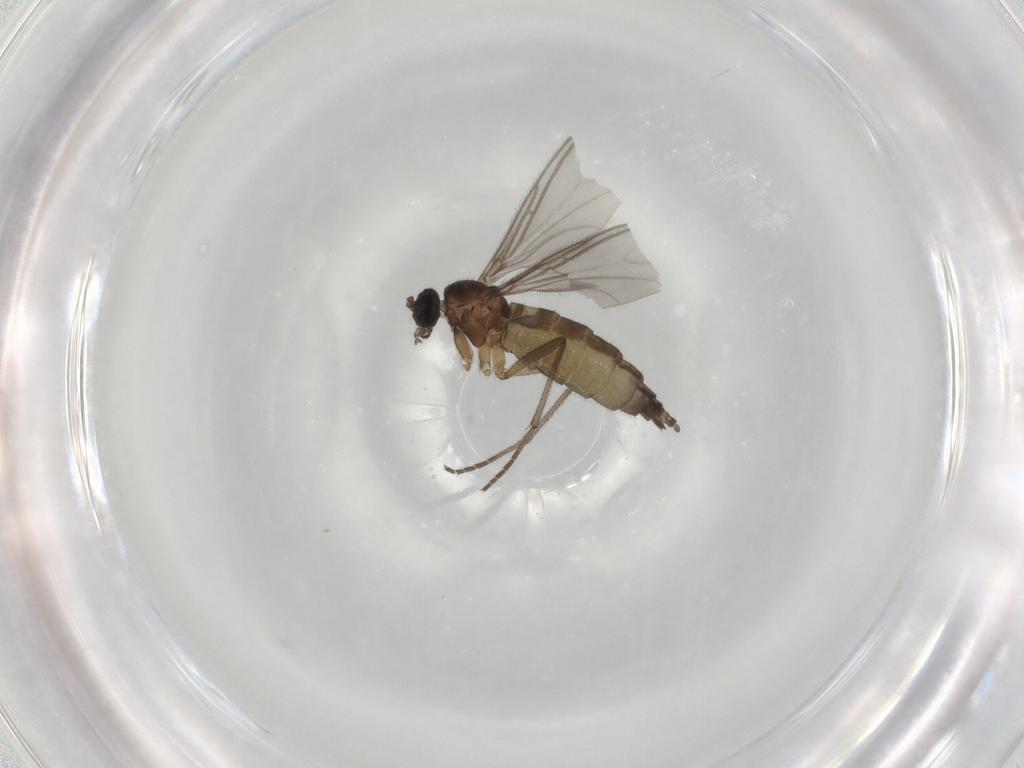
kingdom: Animalia
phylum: Arthropoda
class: Insecta
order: Diptera
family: Sciaridae
